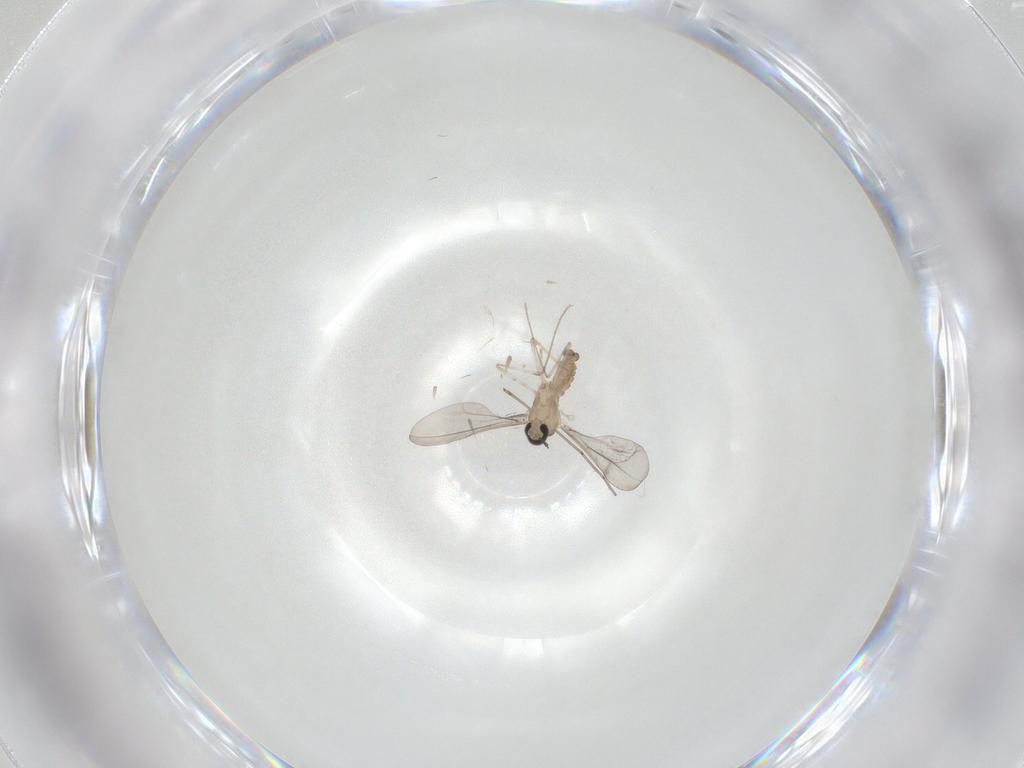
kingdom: Animalia
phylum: Arthropoda
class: Insecta
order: Diptera
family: Cecidomyiidae
